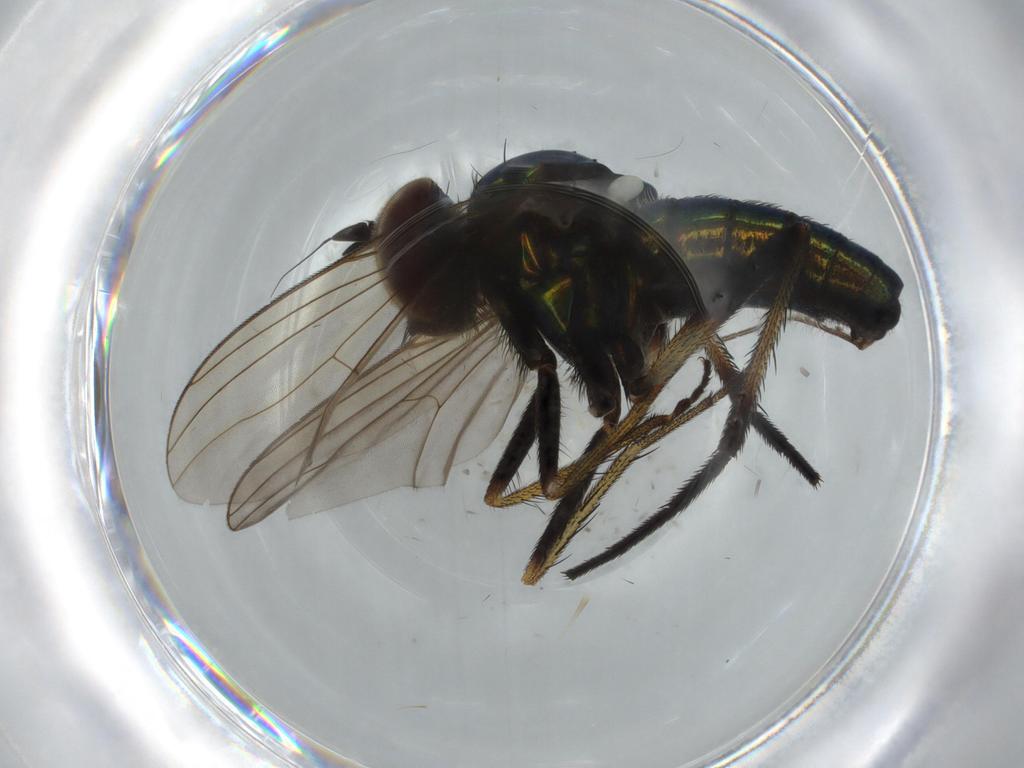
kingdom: Animalia
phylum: Arthropoda
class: Insecta
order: Diptera
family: Dolichopodidae
